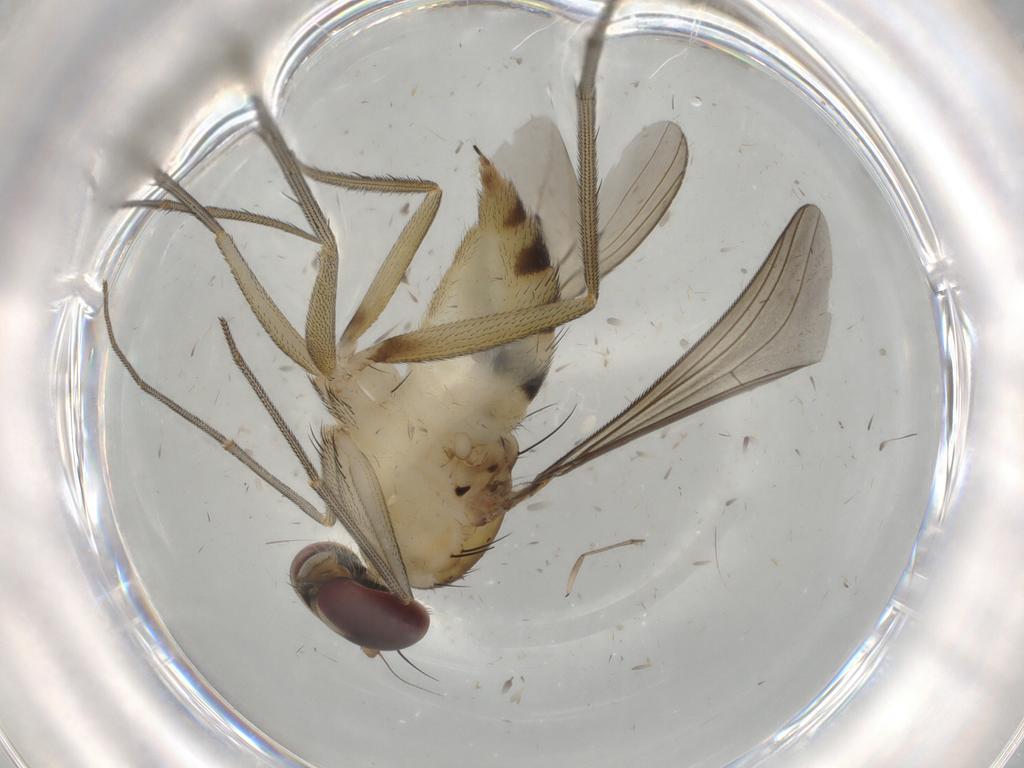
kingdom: Animalia
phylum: Arthropoda
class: Insecta
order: Diptera
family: Dolichopodidae
